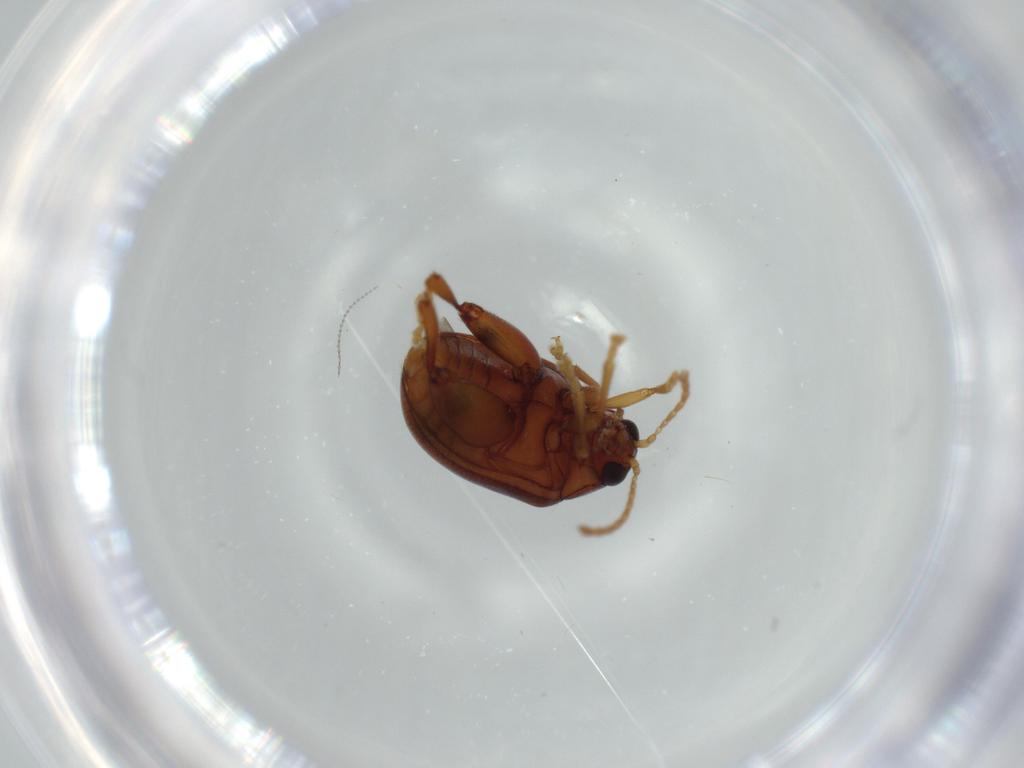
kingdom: Animalia
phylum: Arthropoda
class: Insecta
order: Coleoptera
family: Chrysomelidae
